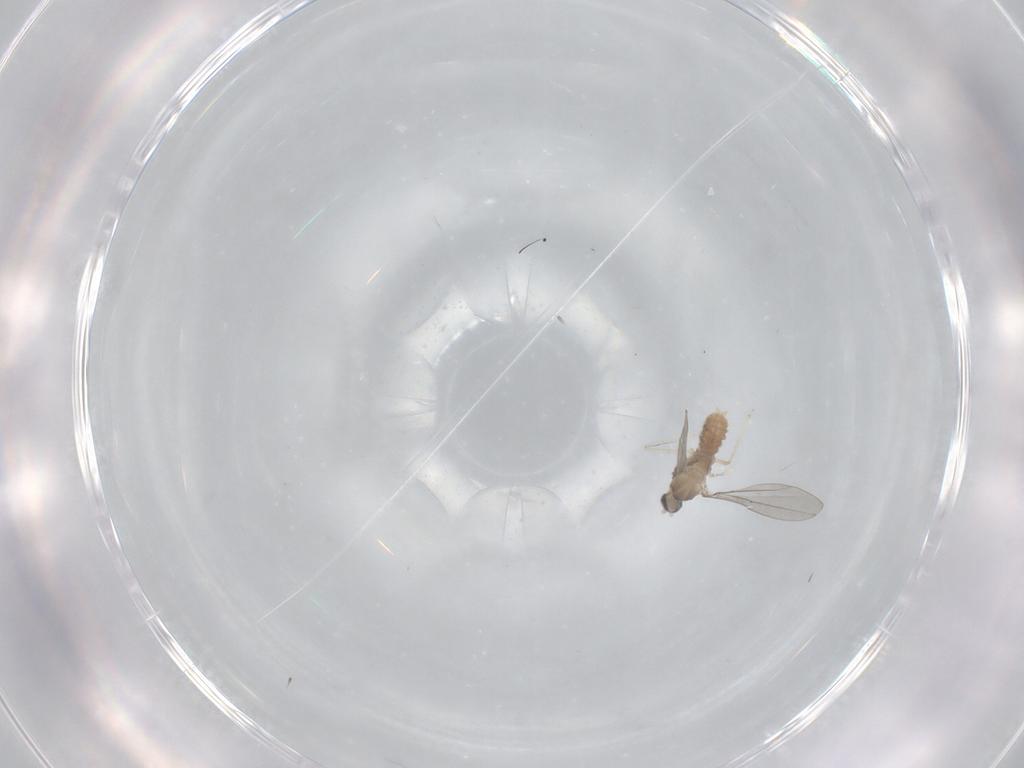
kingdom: Animalia
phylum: Arthropoda
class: Insecta
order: Diptera
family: Cecidomyiidae
